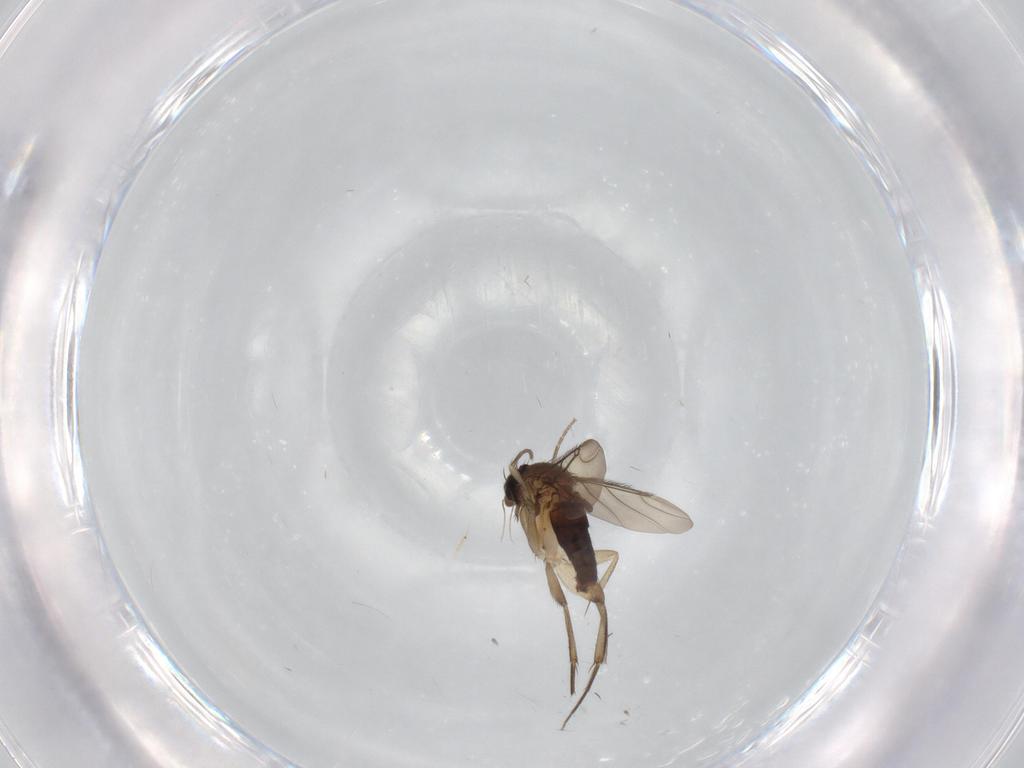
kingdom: Animalia
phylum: Arthropoda
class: Insecta
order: Diptera
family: Phoridae
